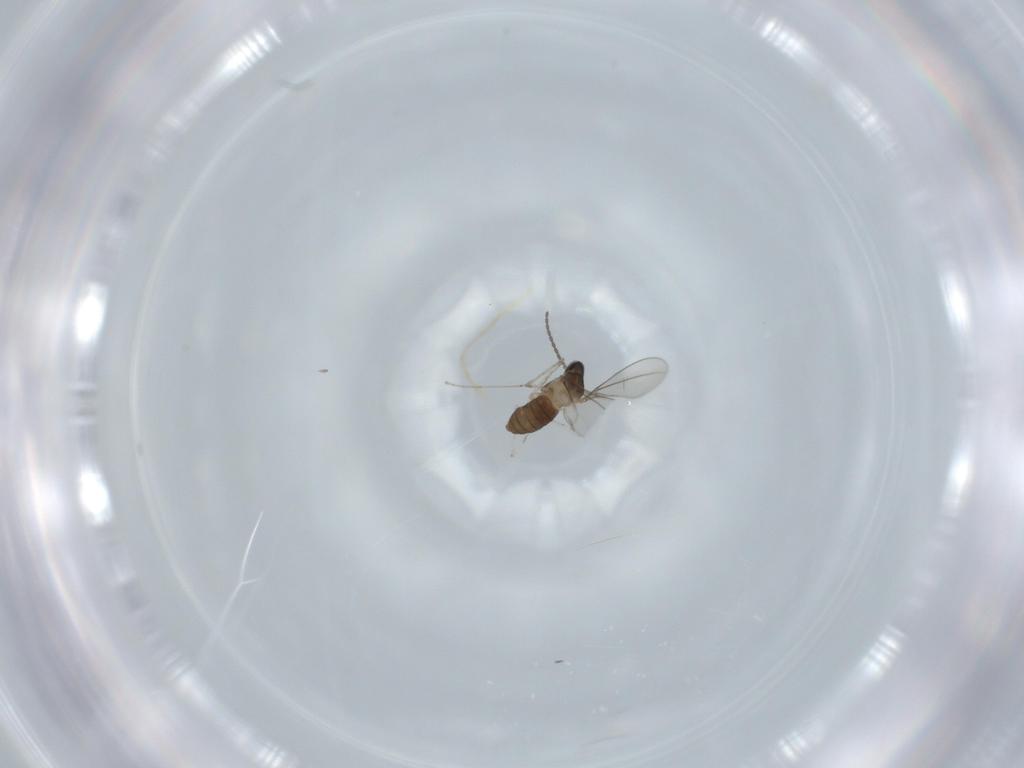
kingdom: Animalia
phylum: Arthropoda
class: Insecta
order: Diptera
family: Cecidomyiidae
